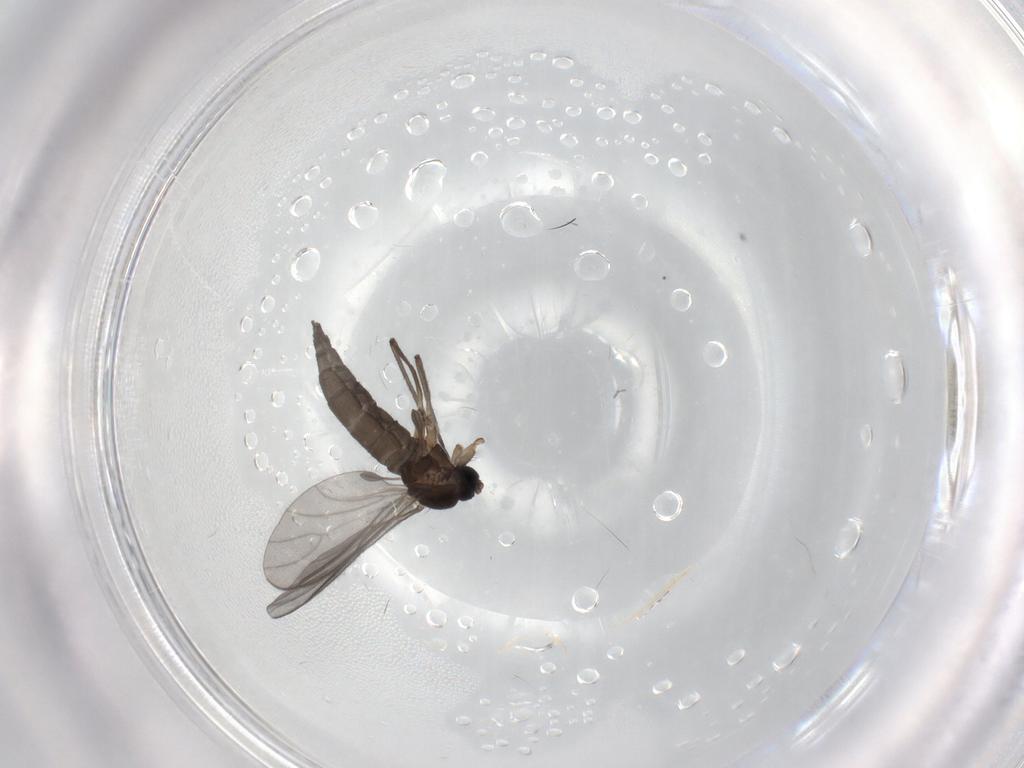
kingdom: Animalia
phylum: Arthropoda
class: Insecta
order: Diptera
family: Sciaridae
